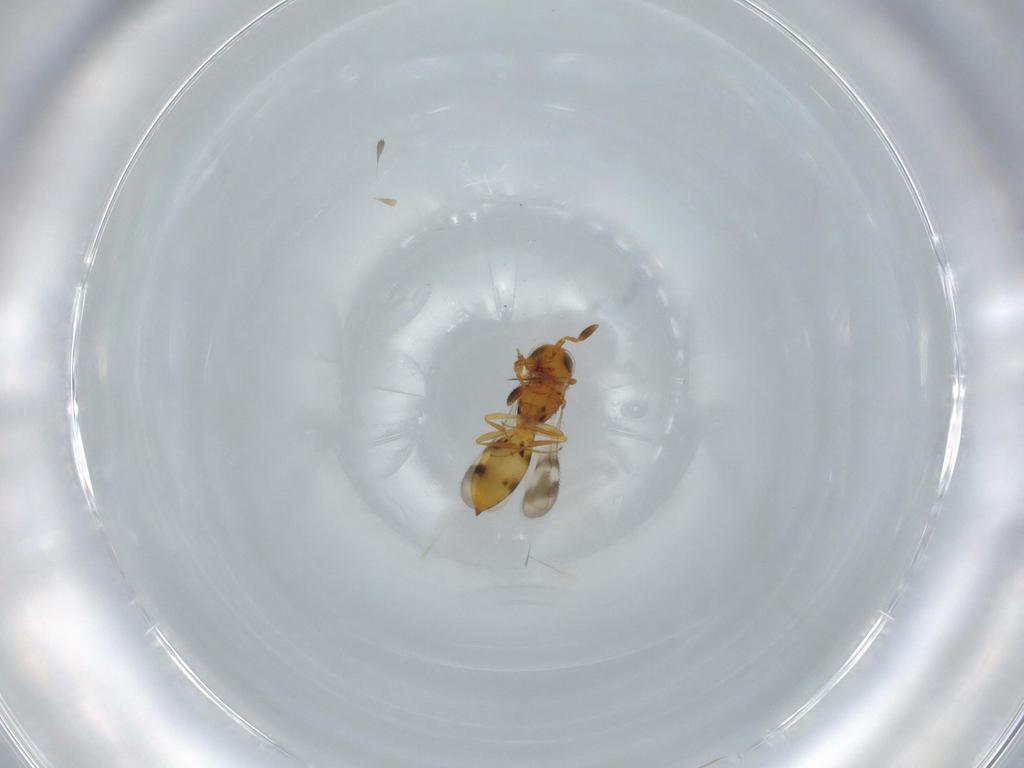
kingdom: Animalia
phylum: Arthropoda
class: Insecta
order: Hymenoptera
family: Scelionidae
